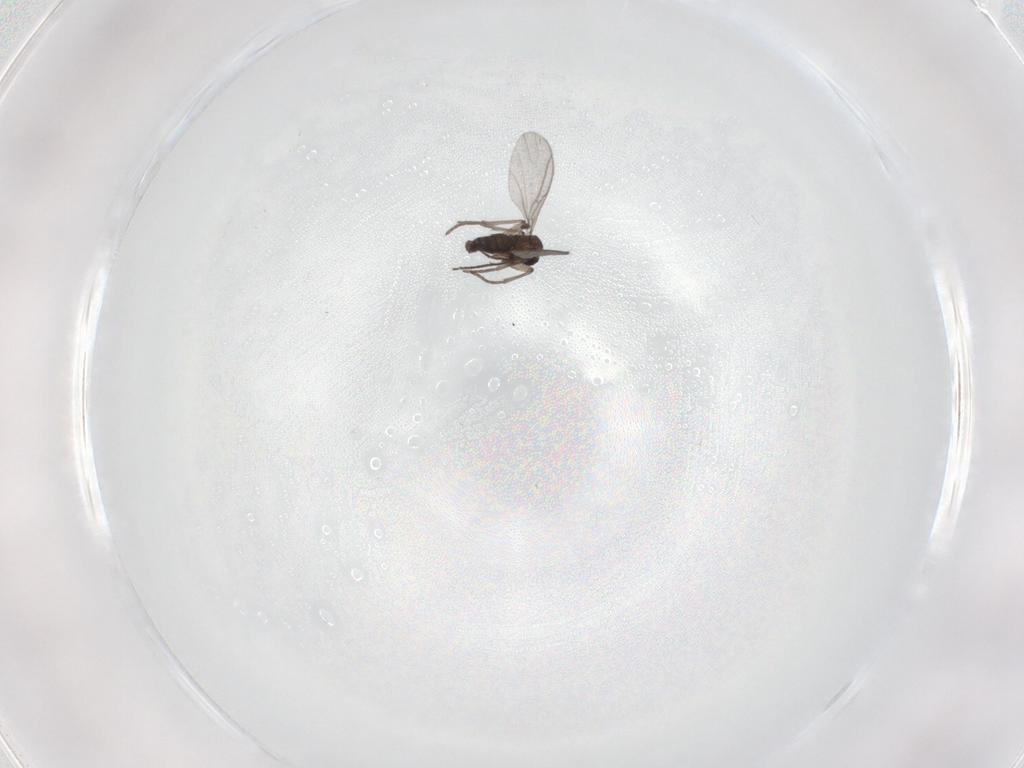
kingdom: Animalia
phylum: Arthropoda
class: Insecta
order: Diptera
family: Sciaridae
